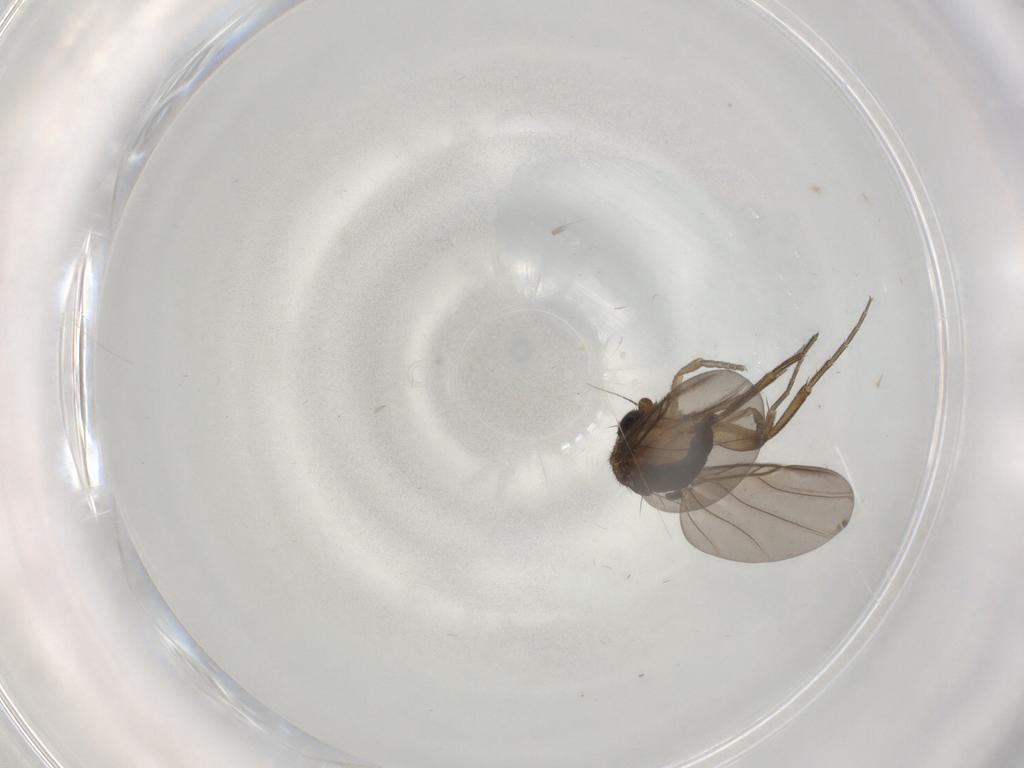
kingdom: Animalia
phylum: Arthropoda
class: Insecta
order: Diptera
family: Phoridae
